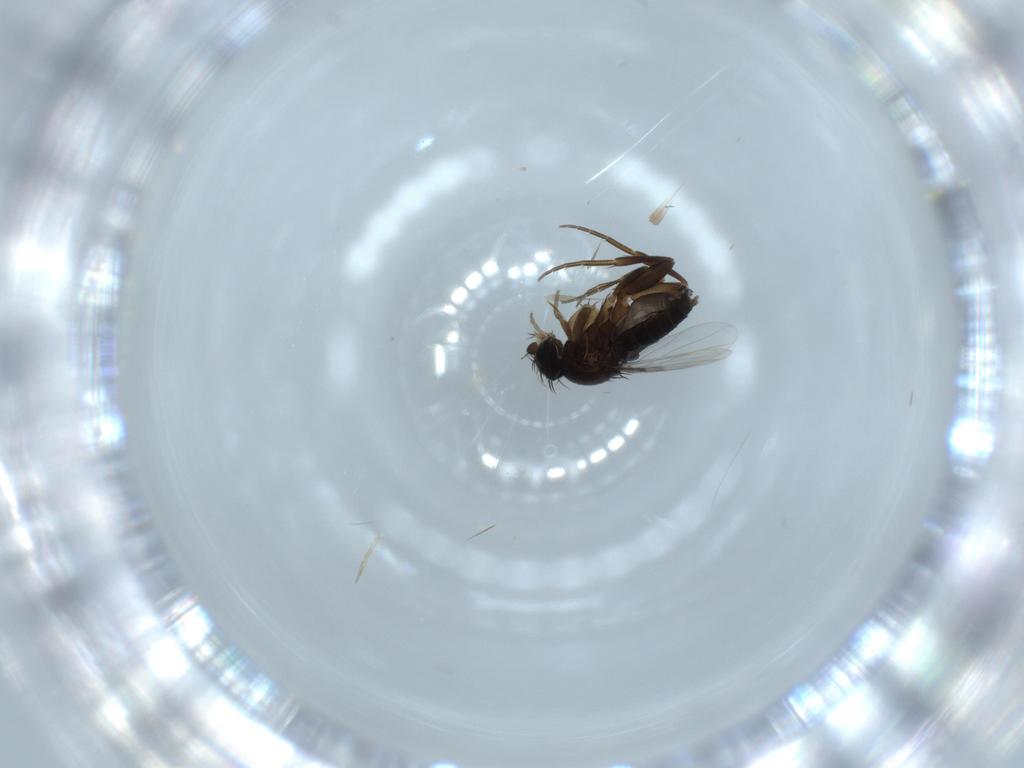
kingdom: Animalia
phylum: Arthropoda
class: Insecta
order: Diptera
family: Phoridae
